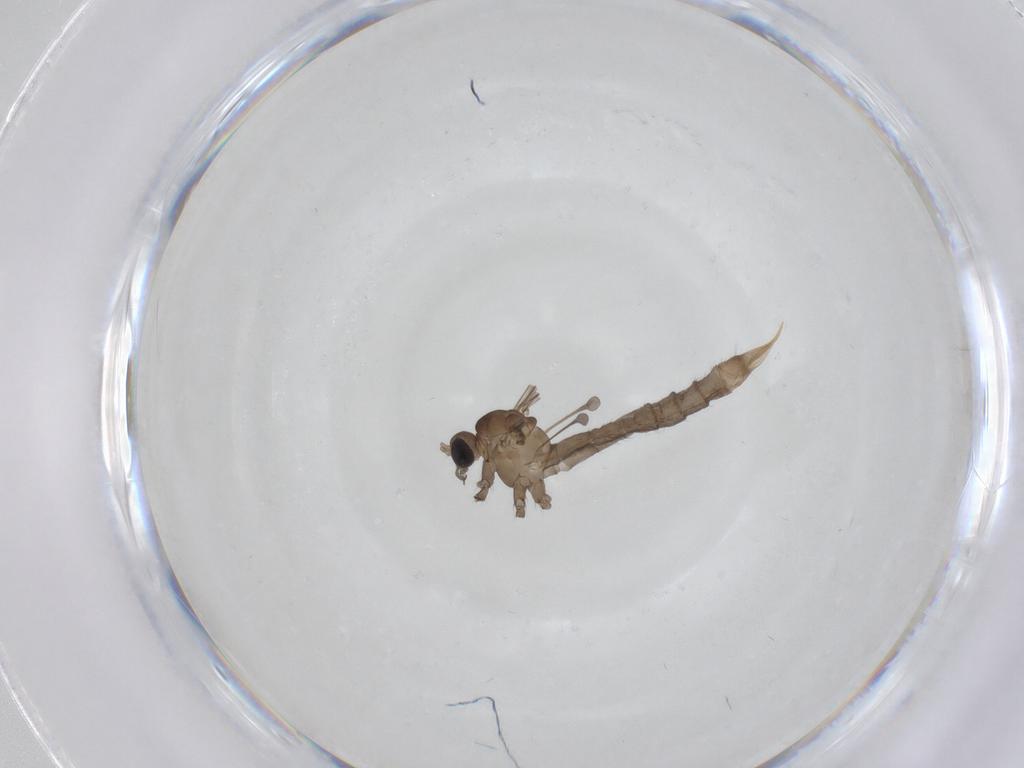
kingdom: Animalia
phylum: Arthropoda
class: Insecta
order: Diptera
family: Limoniidae
